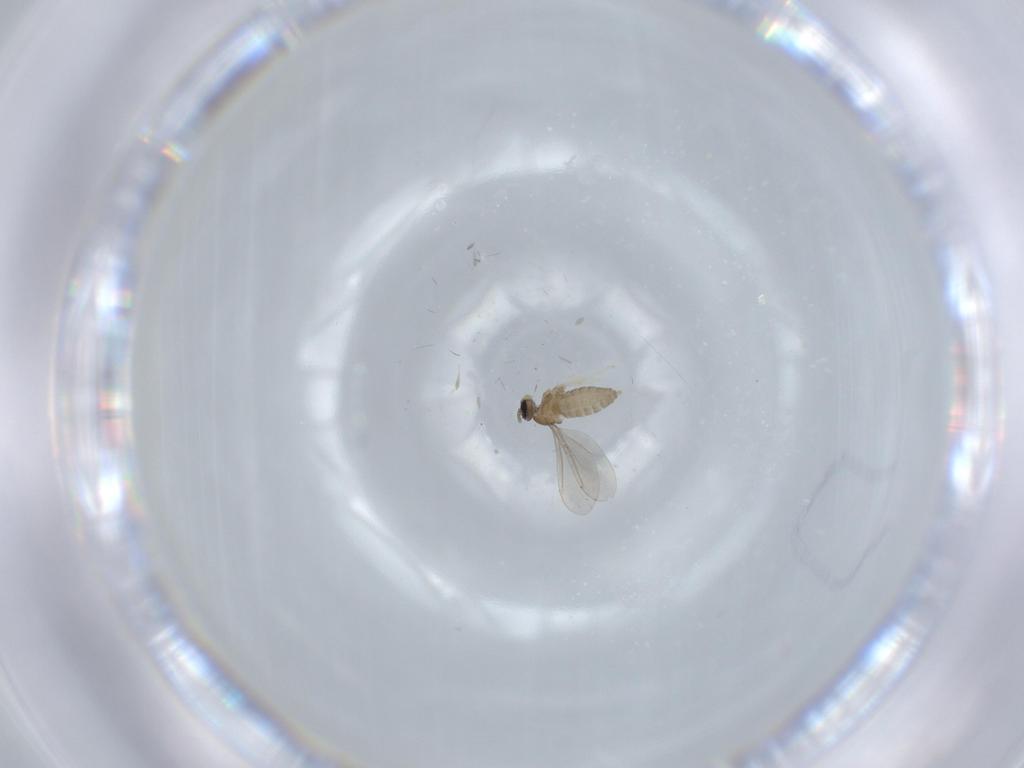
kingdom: Animalia
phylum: Arthropoda
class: Insecta
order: Diptera
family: Cecidomyiidae
